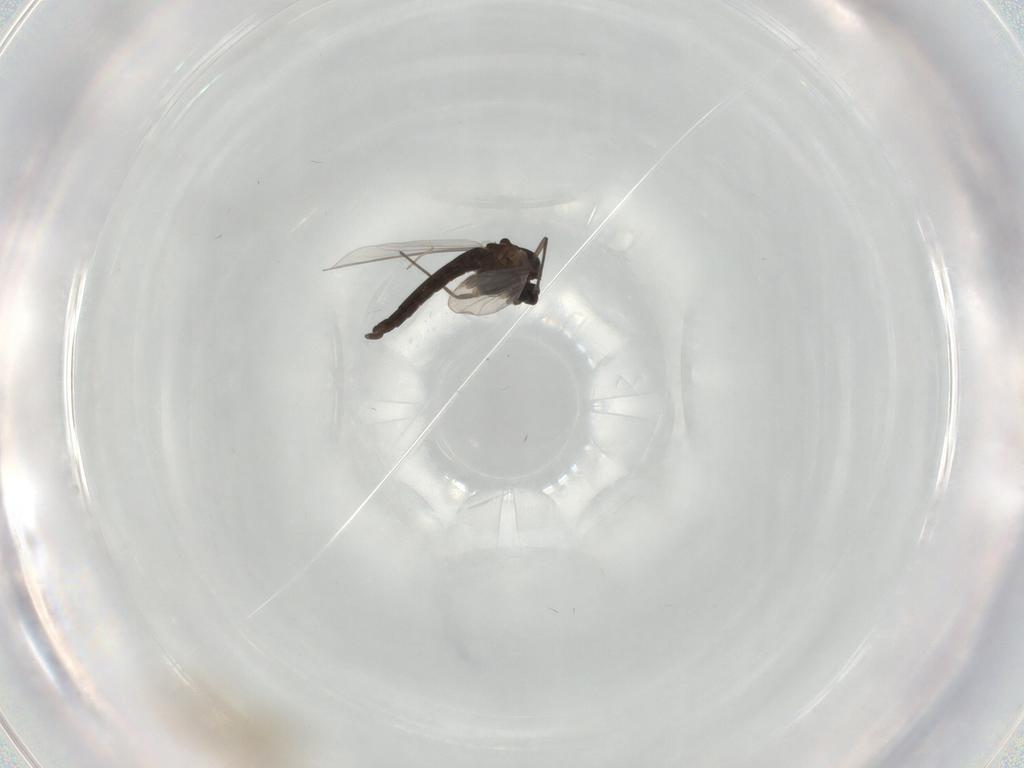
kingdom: Animalia
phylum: Arthropoda
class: Insecta
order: Diptera
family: Chironomidae
